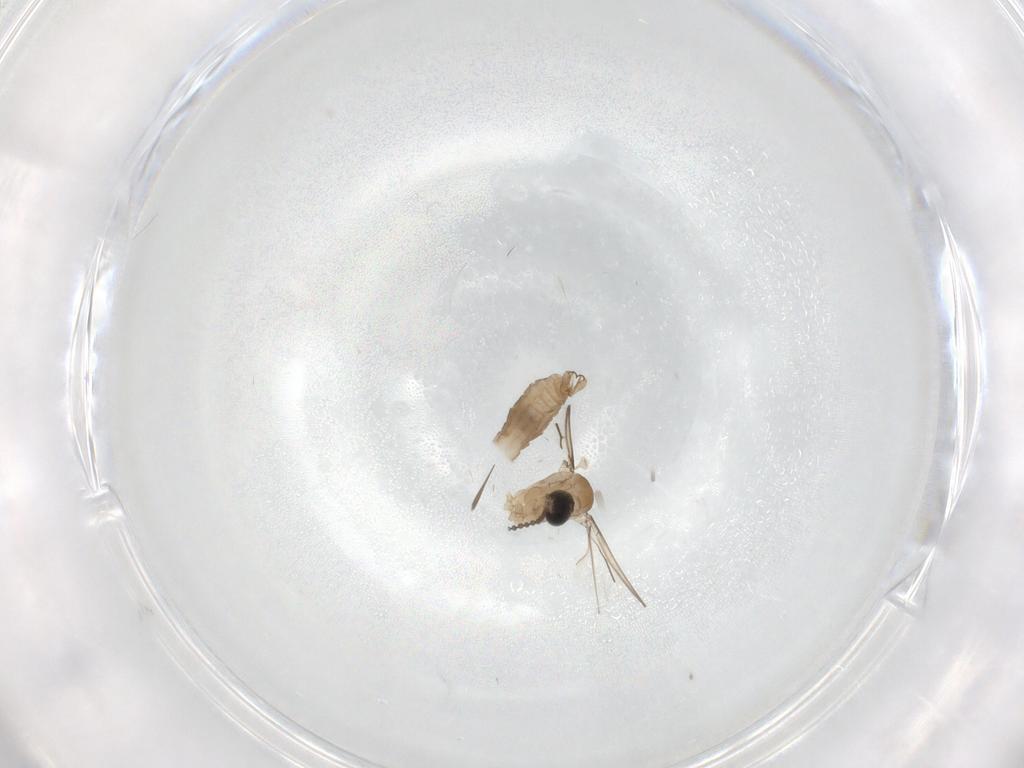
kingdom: Animalia
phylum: Arthropoda
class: Insecta
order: Diptera
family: Cecidomyiidae
